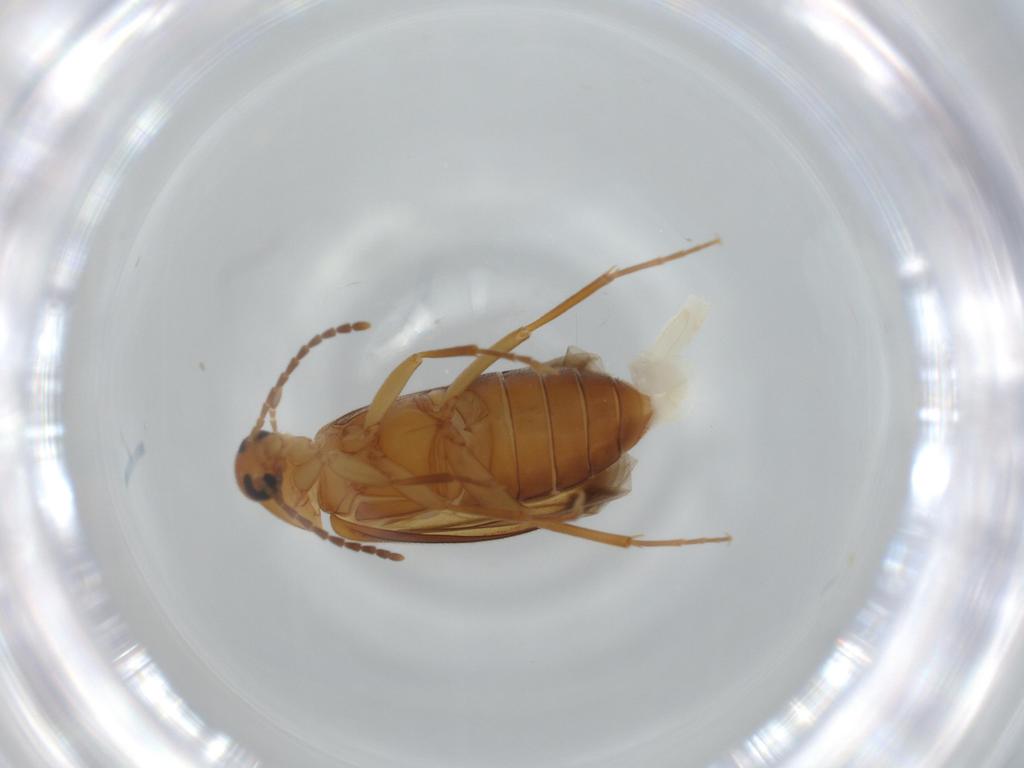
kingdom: Animalia
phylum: Arthropoda
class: Insecta
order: Coleoptera
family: Scraptiidae
